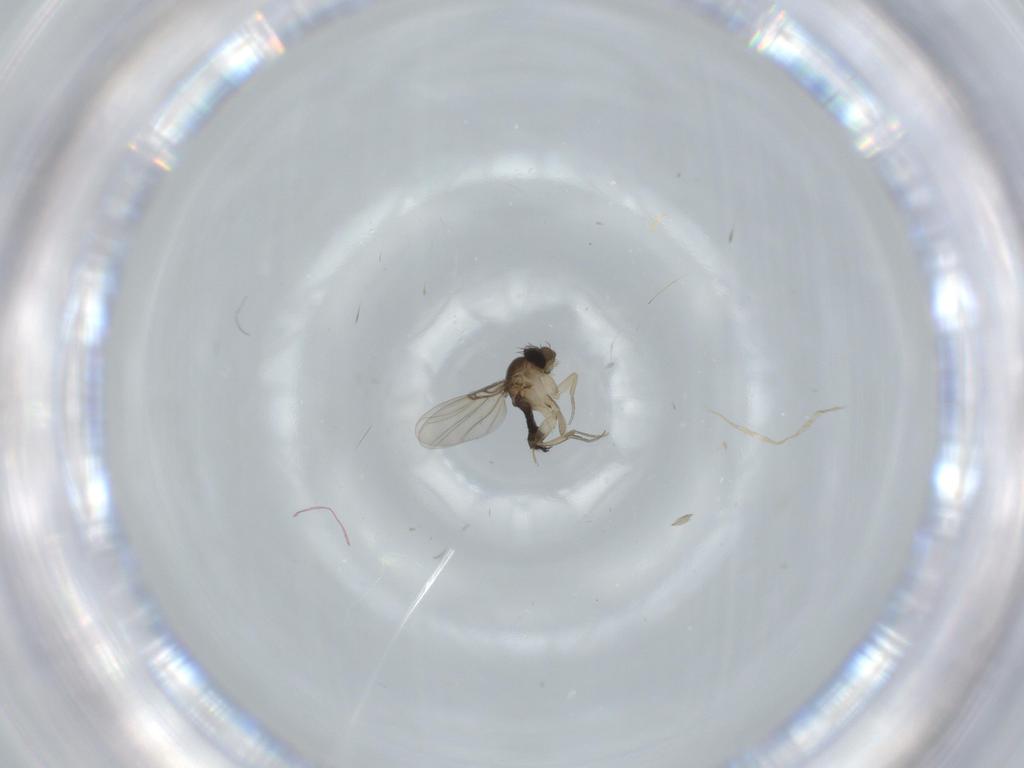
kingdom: Animalia
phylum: Arthropoda
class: Insecta
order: Diptera
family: Phoridae
